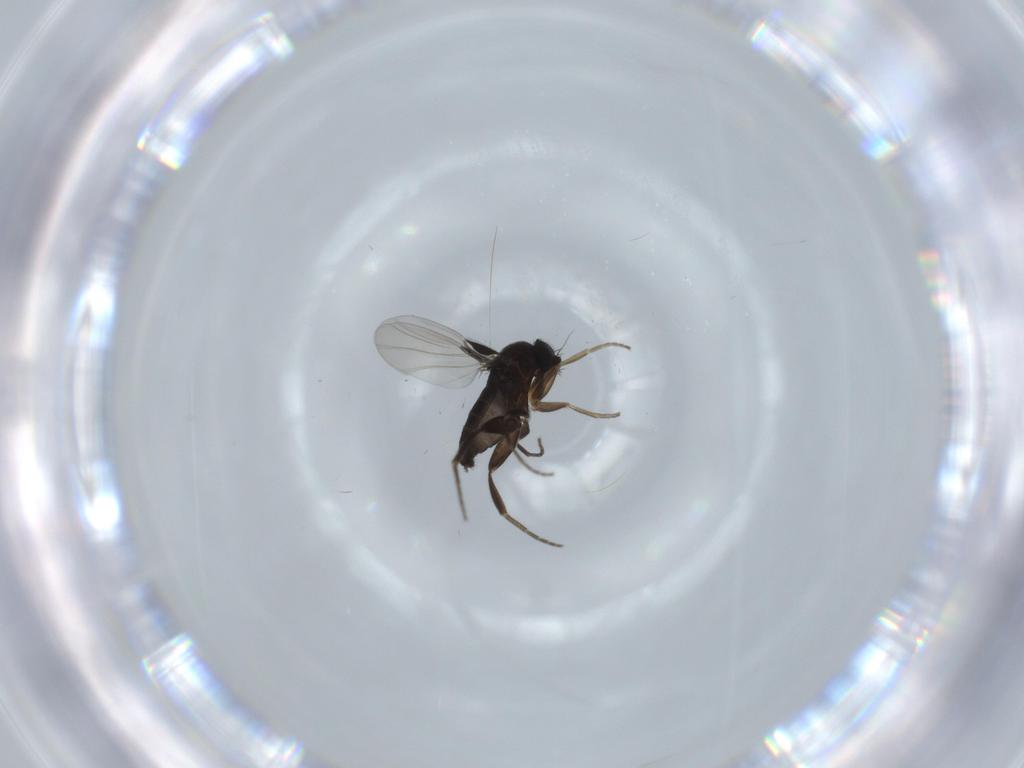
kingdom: Animalia
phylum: Arthropoda
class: Insecta
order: Diptera
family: Phoridae
